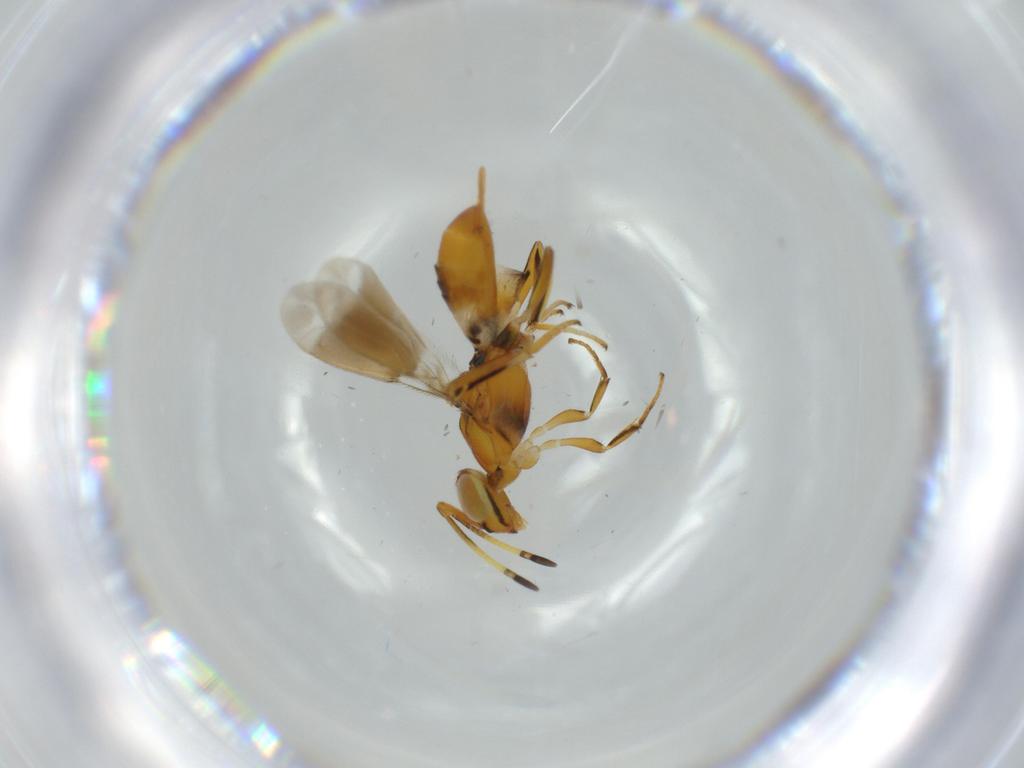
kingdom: Animalia
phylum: Arthropoda
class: Insecta
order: Hymenoptera
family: Eupelmidae
